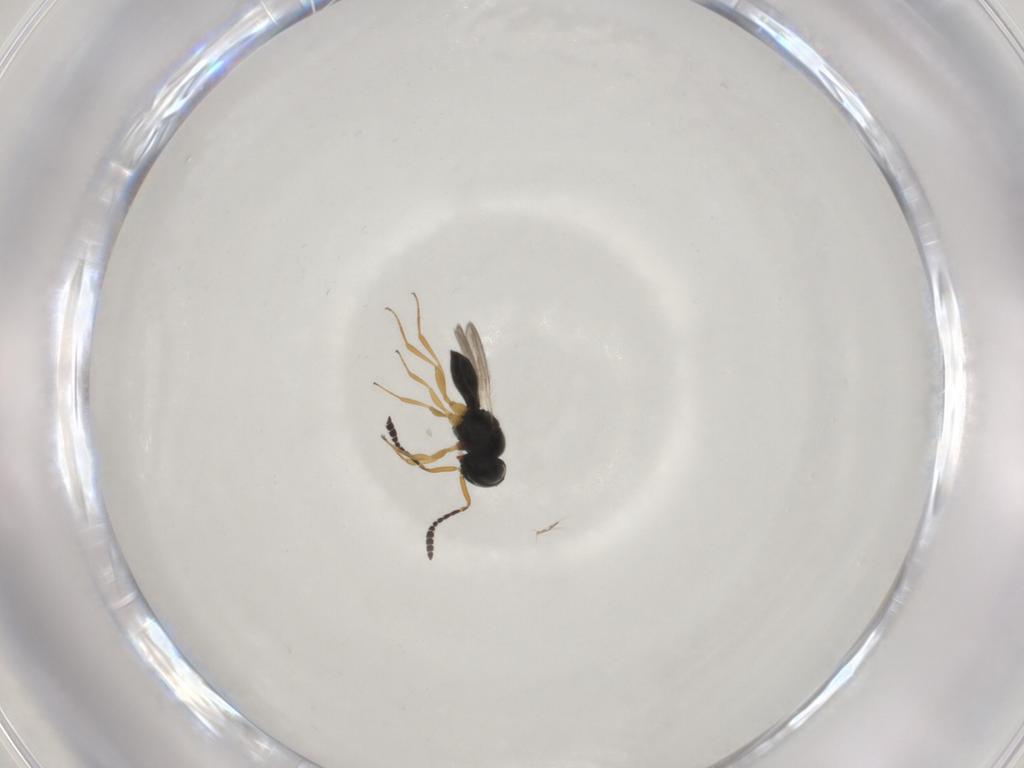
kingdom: Animalia
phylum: Arthropoda
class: Insecta
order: Hymenoptera
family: Scelionidae
